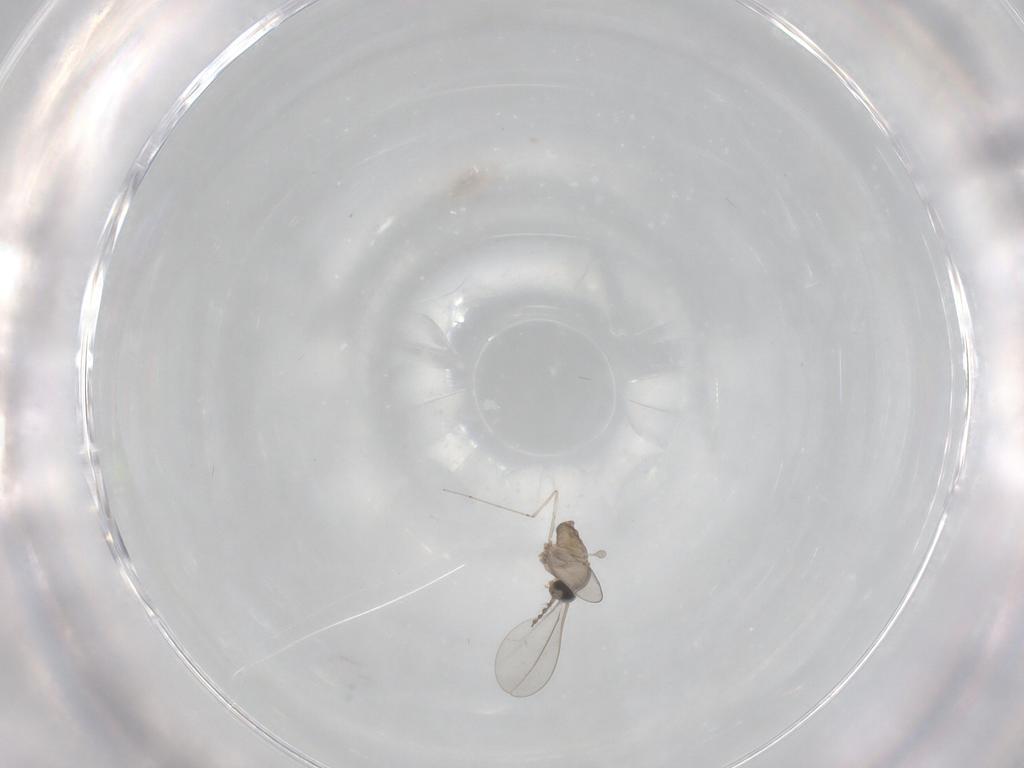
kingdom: Animalia
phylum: Arthropoda
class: Insecta
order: Diptera
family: Cecidomyiidae
